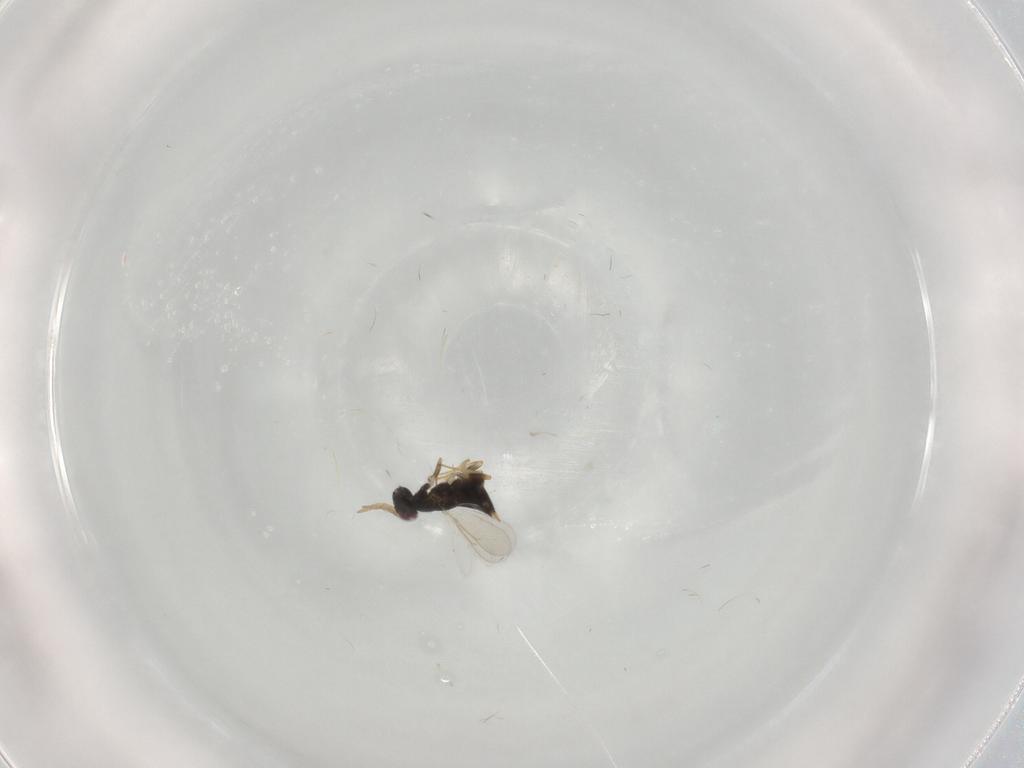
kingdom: Animalia
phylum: Arthropoda
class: Insecta
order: Hymenoptera
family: Aphelinidae
